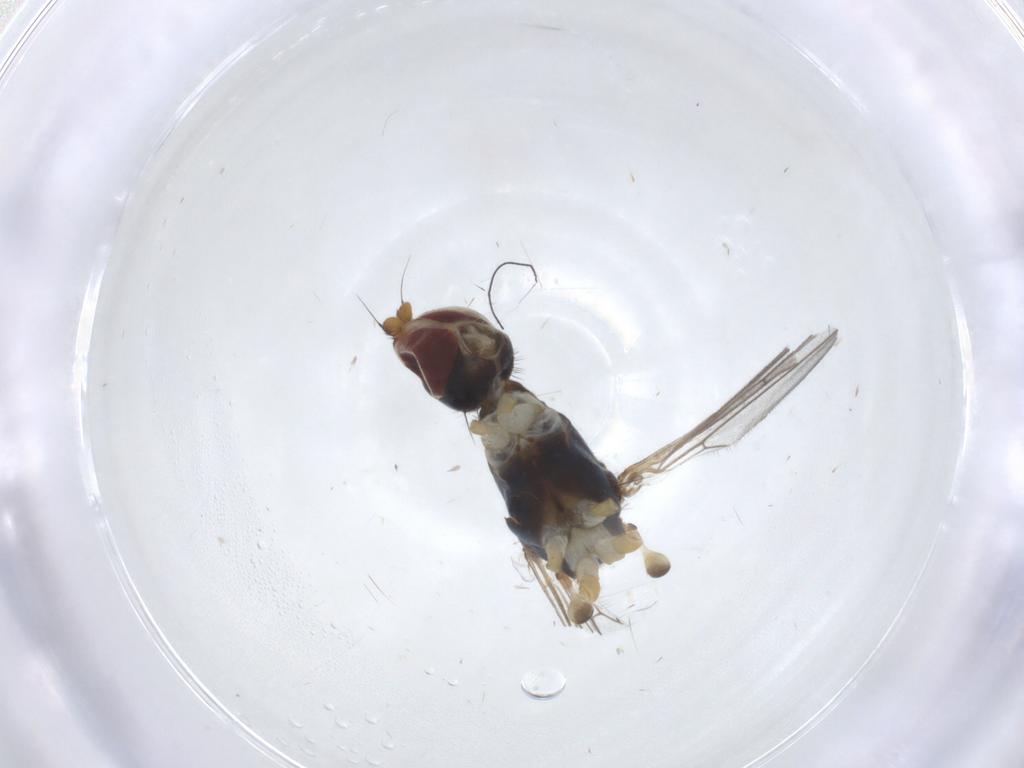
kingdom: Animalia
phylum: Arthropoda
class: Insecta
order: Diptera
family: Micropezidae
